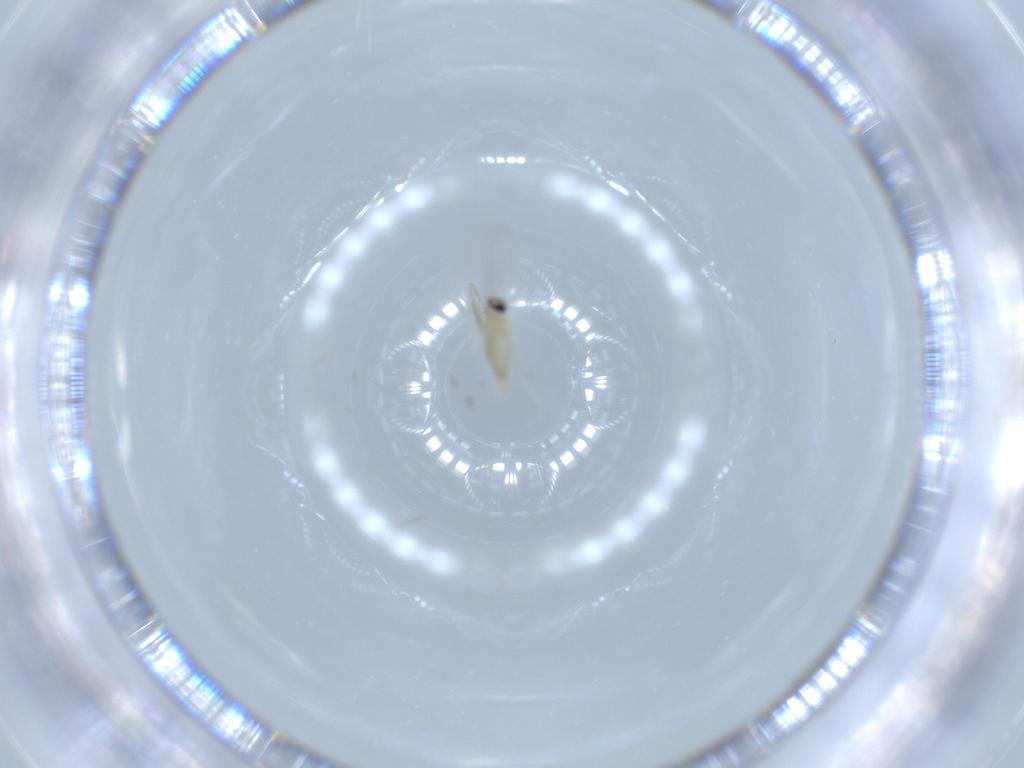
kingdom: Animalia
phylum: Arthropoda
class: Insecta
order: Diptera
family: Cecidomyiidae
